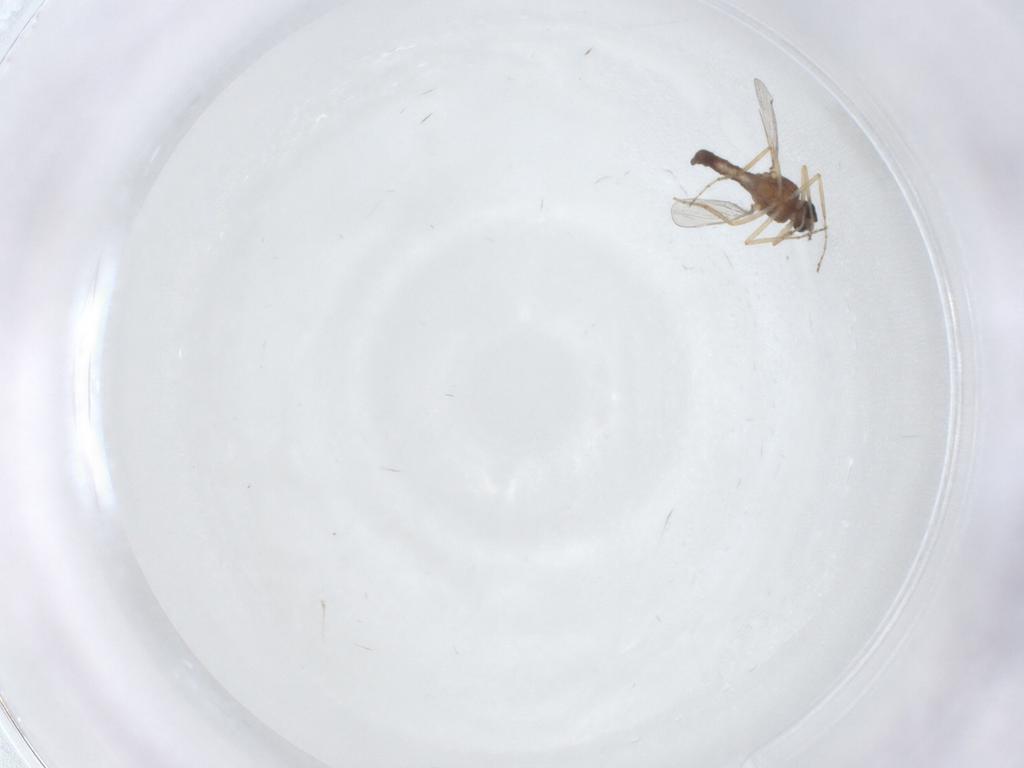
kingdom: Animalia
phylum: Arthropoda
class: Insecta
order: Diptera
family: Ceratopogonidae
